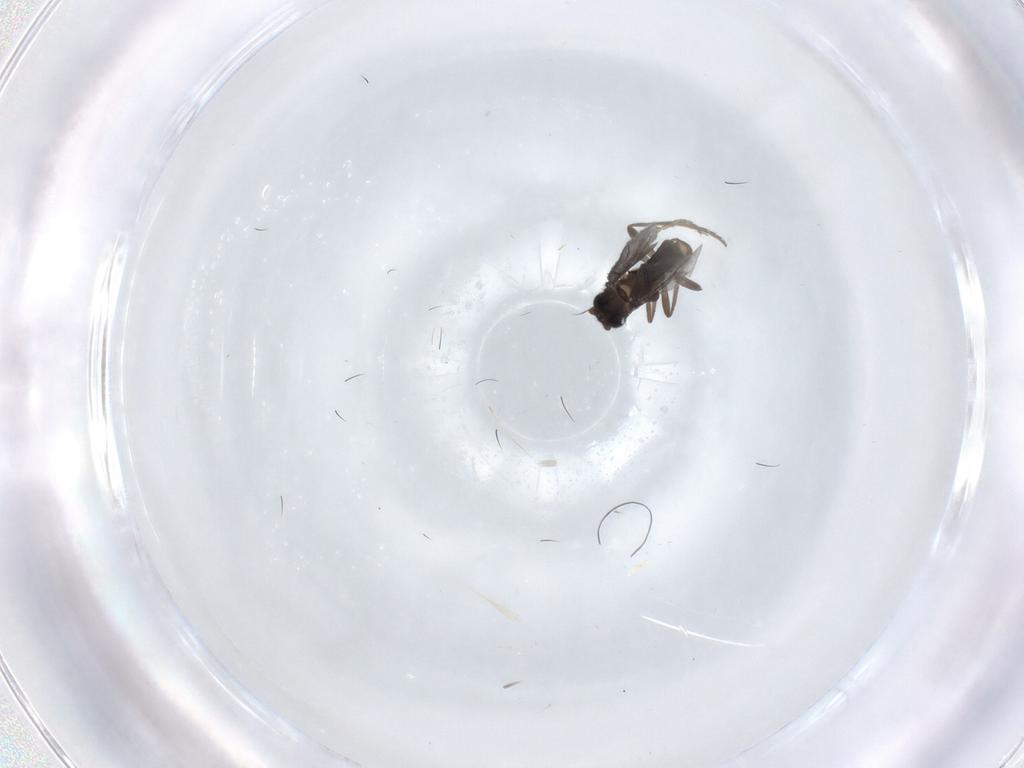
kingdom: Animalia
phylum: Arthropoda
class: Insecta
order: Diptera
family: Phoridae
